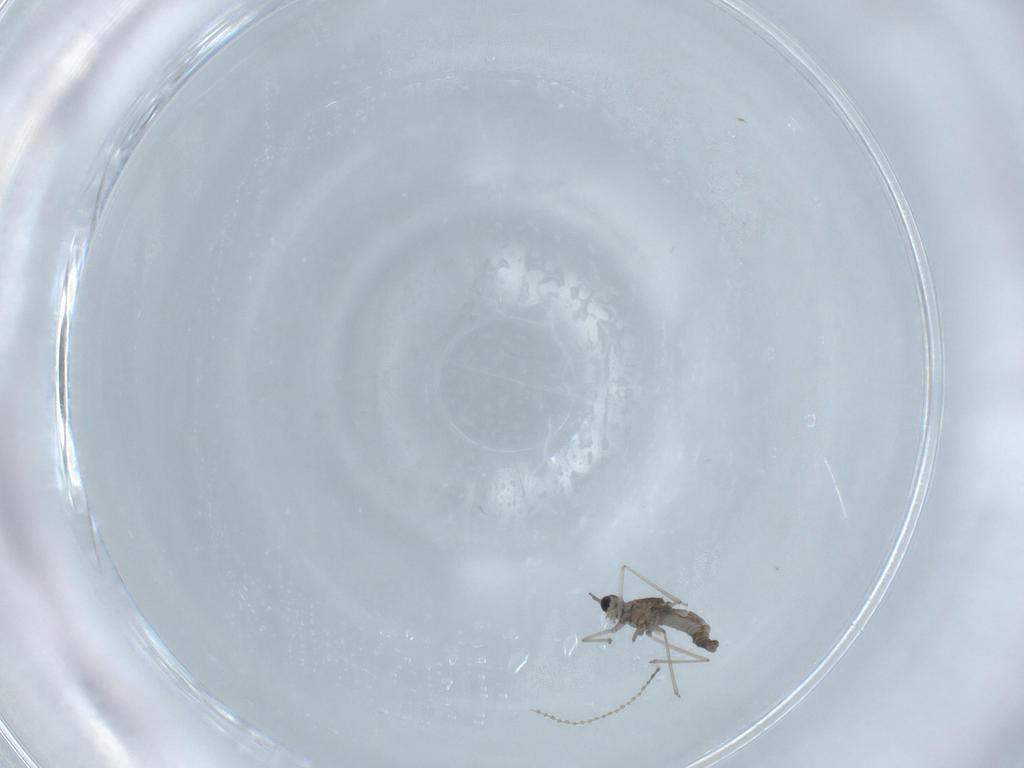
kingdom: Animalia
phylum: Arthropoda
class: Insecta
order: Diptera
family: Cecidomyiidae
